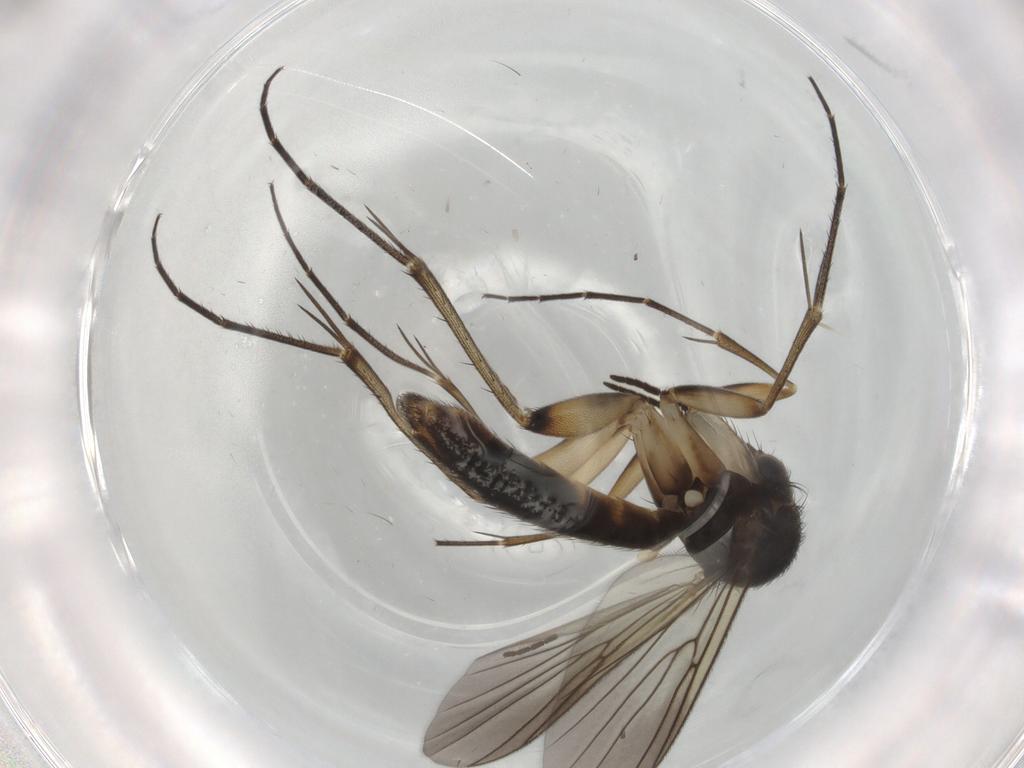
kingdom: Animalia
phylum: Arthropoda
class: Insecta
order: Diptera
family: Sciaridae
